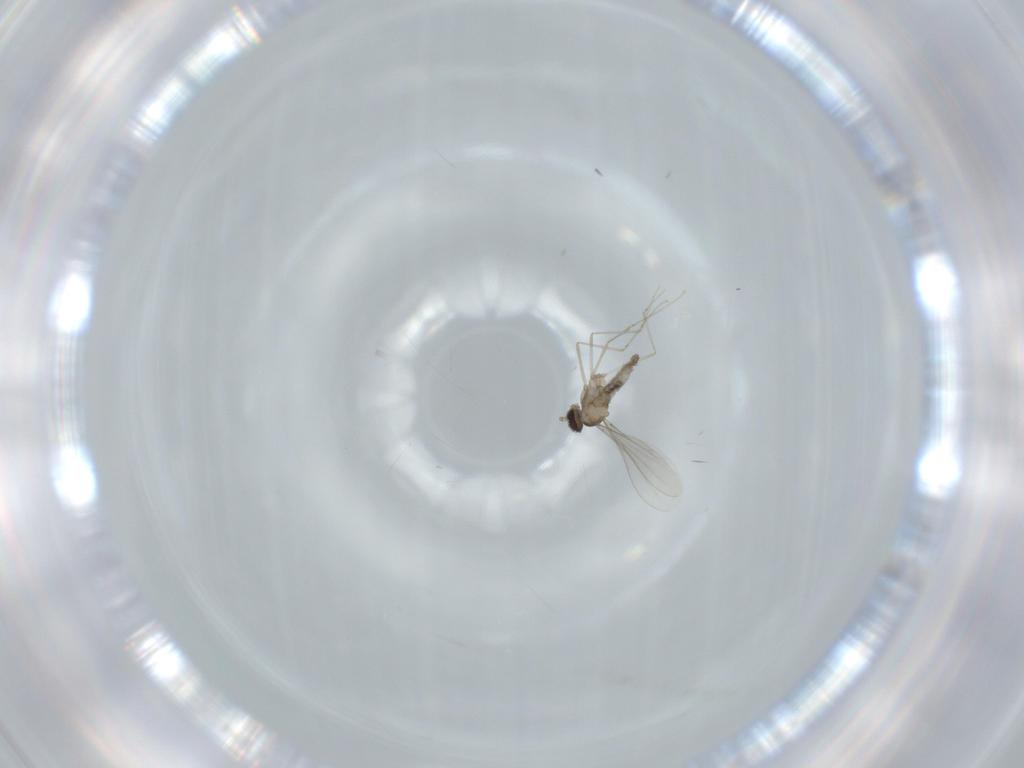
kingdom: Animalia
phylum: Arthropoda
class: Insecta
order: Diptera
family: Cecidomyiidae
